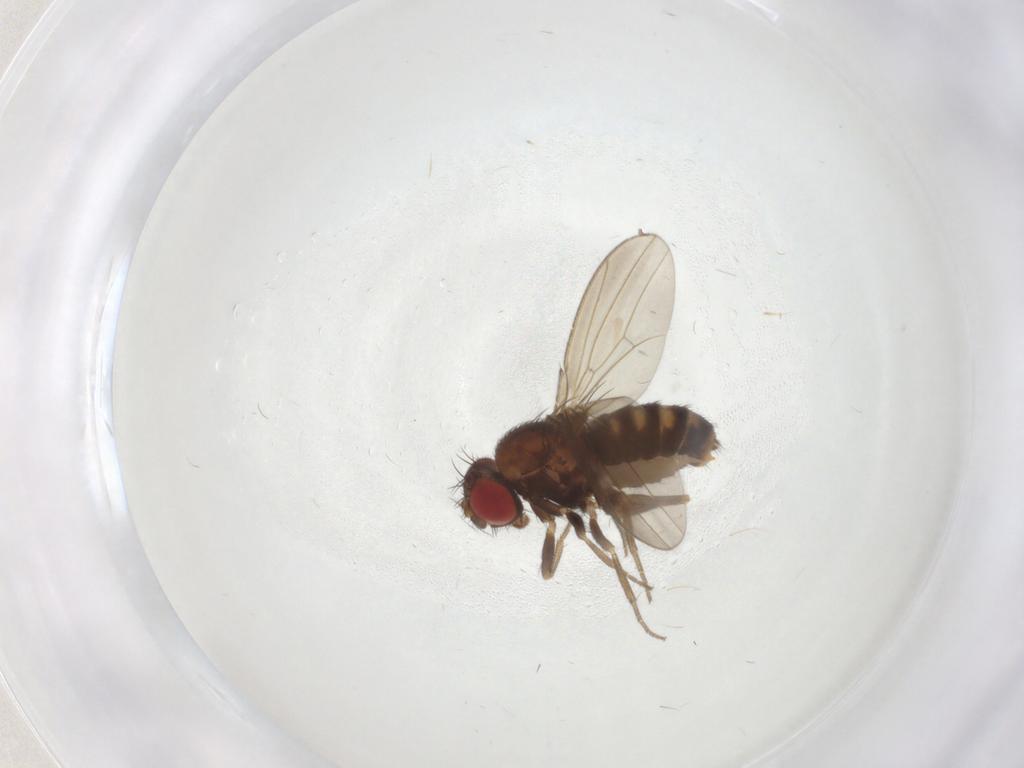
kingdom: Animalia
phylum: Arthropoda
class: Insecta
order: Diptera
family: Drosophilidae
